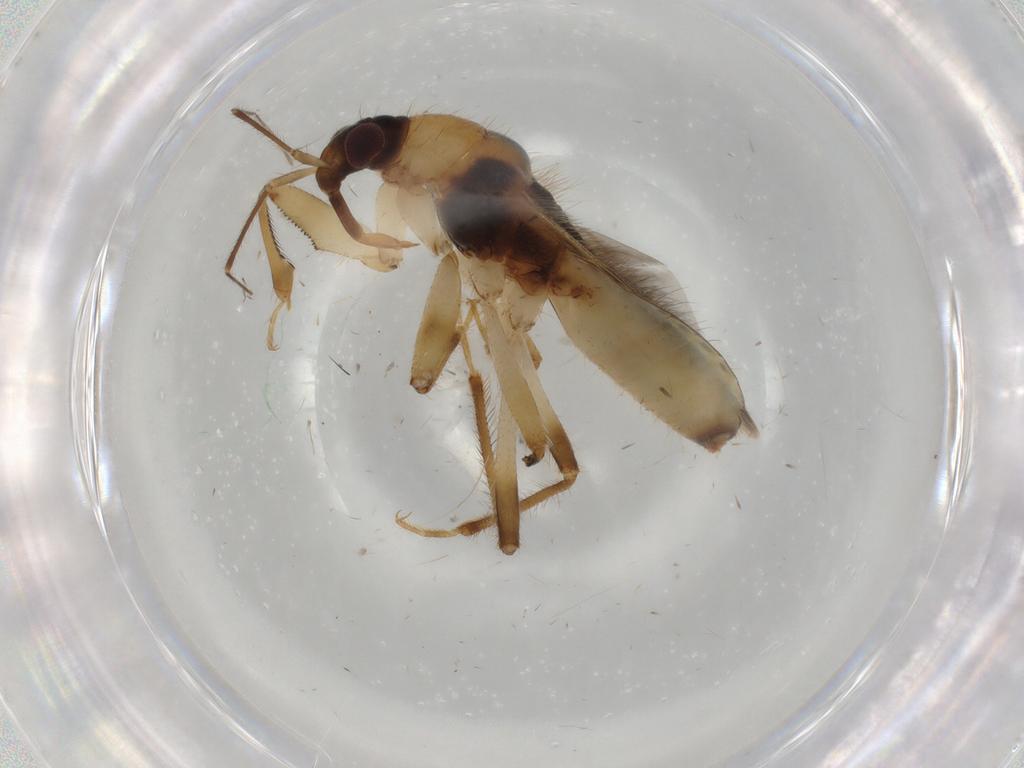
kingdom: Animalia
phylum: Arthropoda
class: Insecta
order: Hemiptera
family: Nabidae
